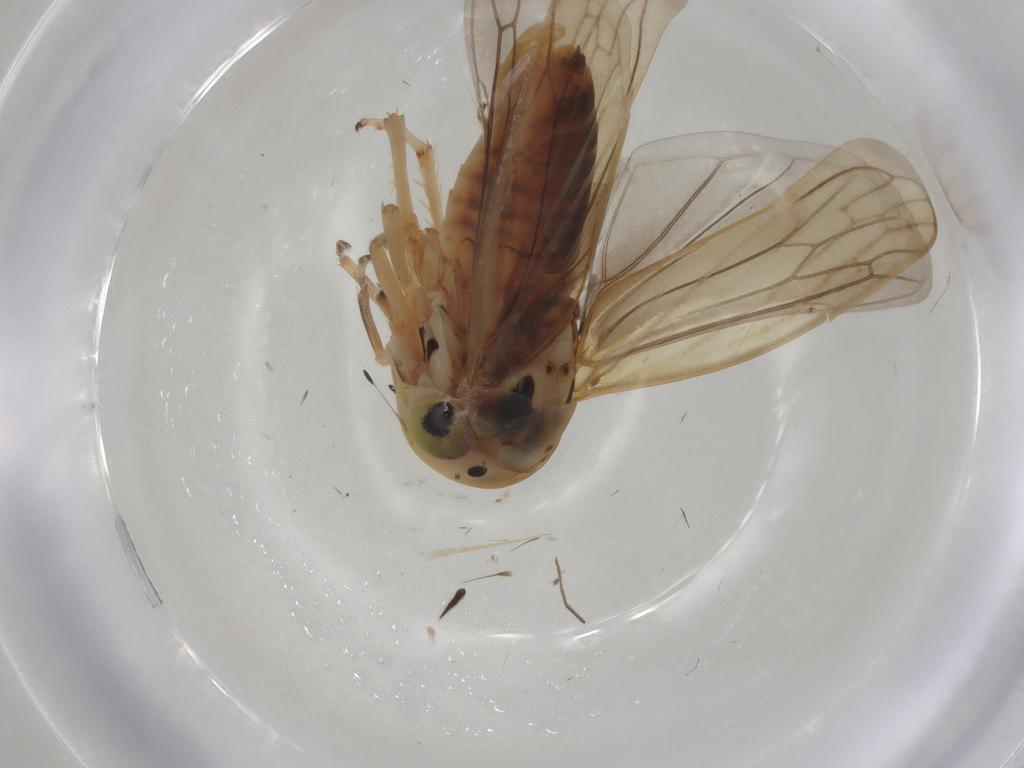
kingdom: Animalia
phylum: Arthropoda
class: Insecta
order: Hemiptera
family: Cicadellidae
